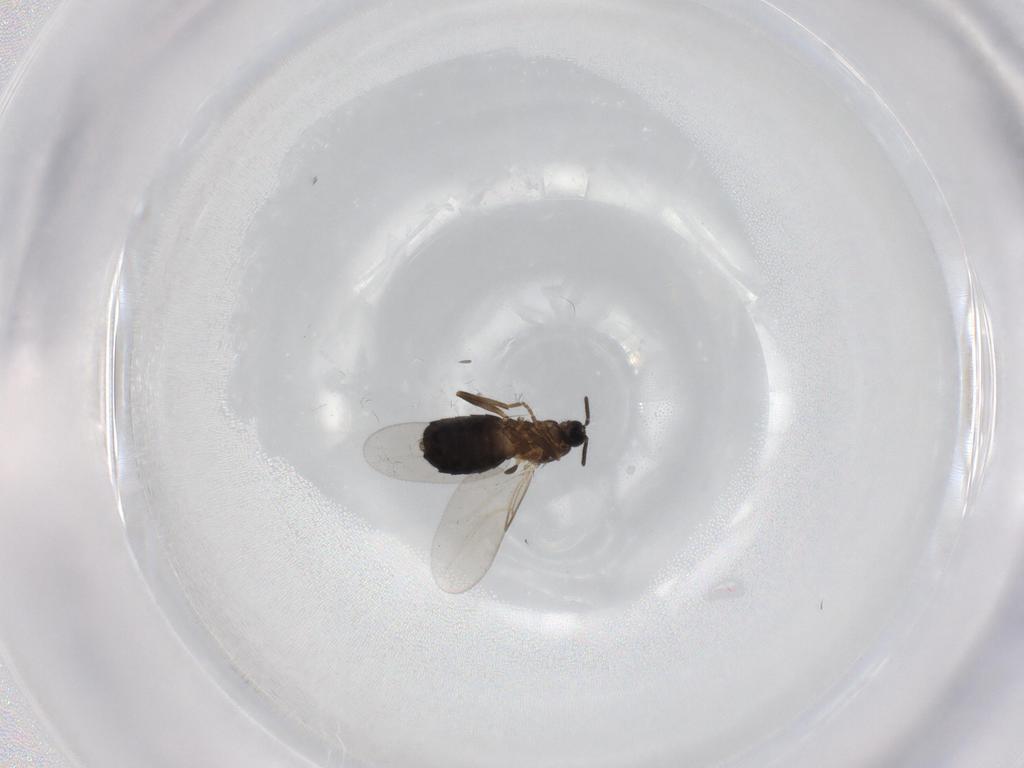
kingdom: Animalia
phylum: Arthropoda
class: Insecta
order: Diptera
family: Scatopsidae
